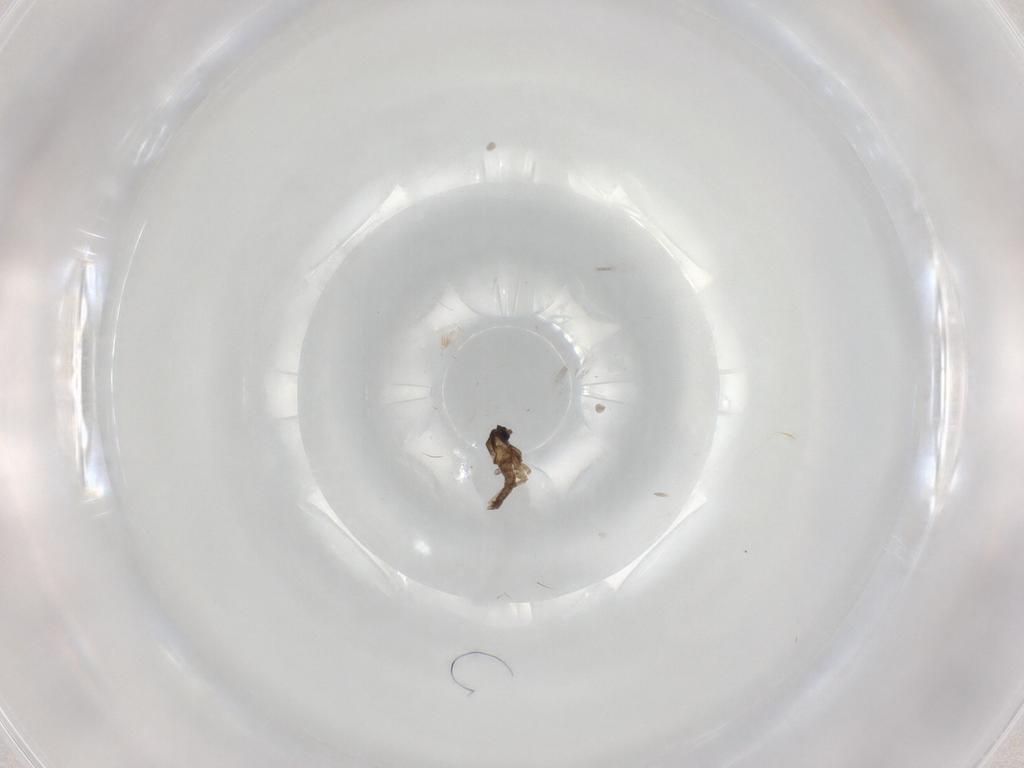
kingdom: Animalia
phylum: Arthropoda
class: Insecta
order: Diptera
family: Cecidomyiidae
